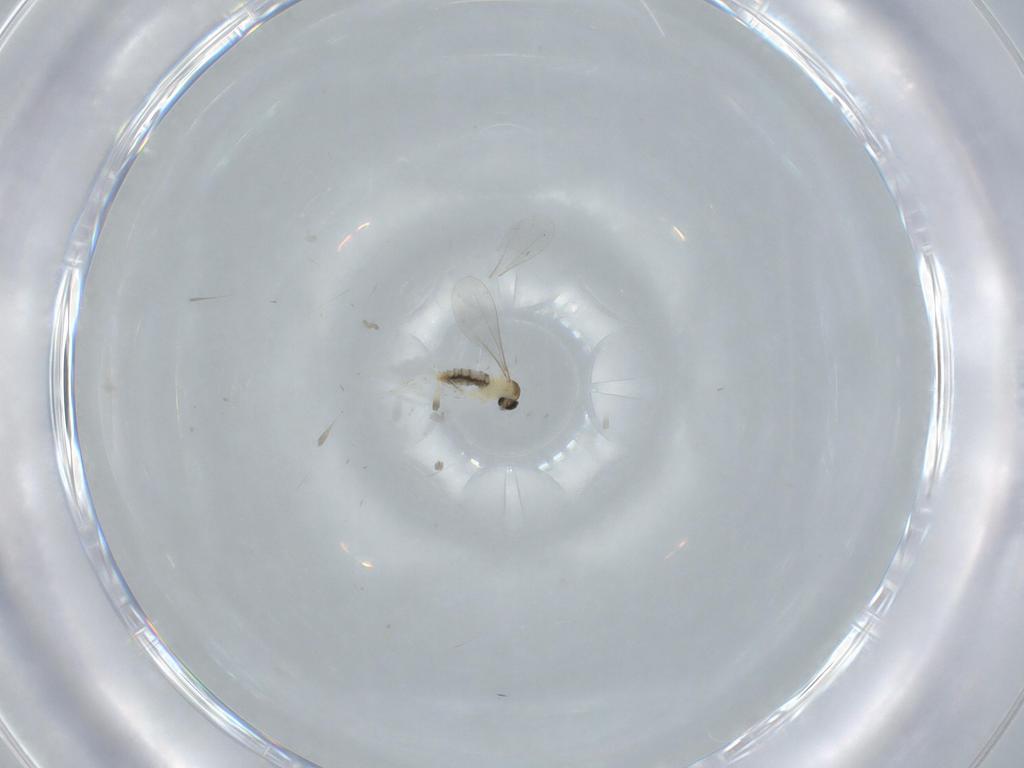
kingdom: Animalia
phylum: Arthropoda
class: Insecta
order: Diptera
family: Cecidomyiidae
